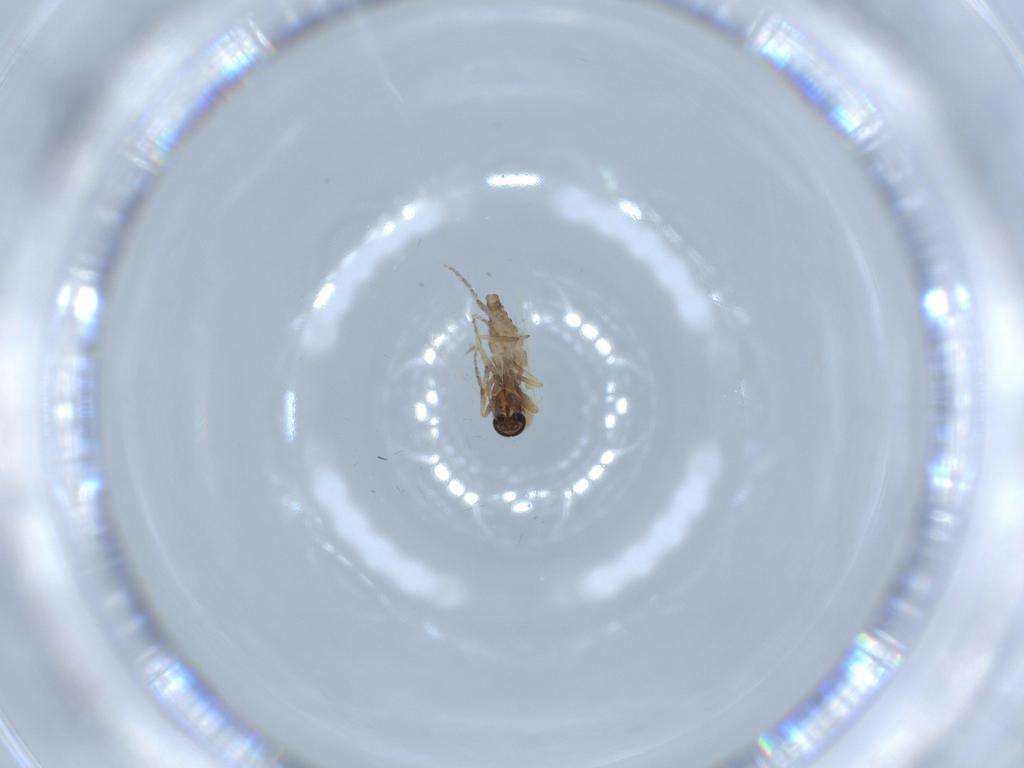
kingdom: Animalia
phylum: Arthropoda
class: Insecta
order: Diptera
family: Ceratopogonidae
